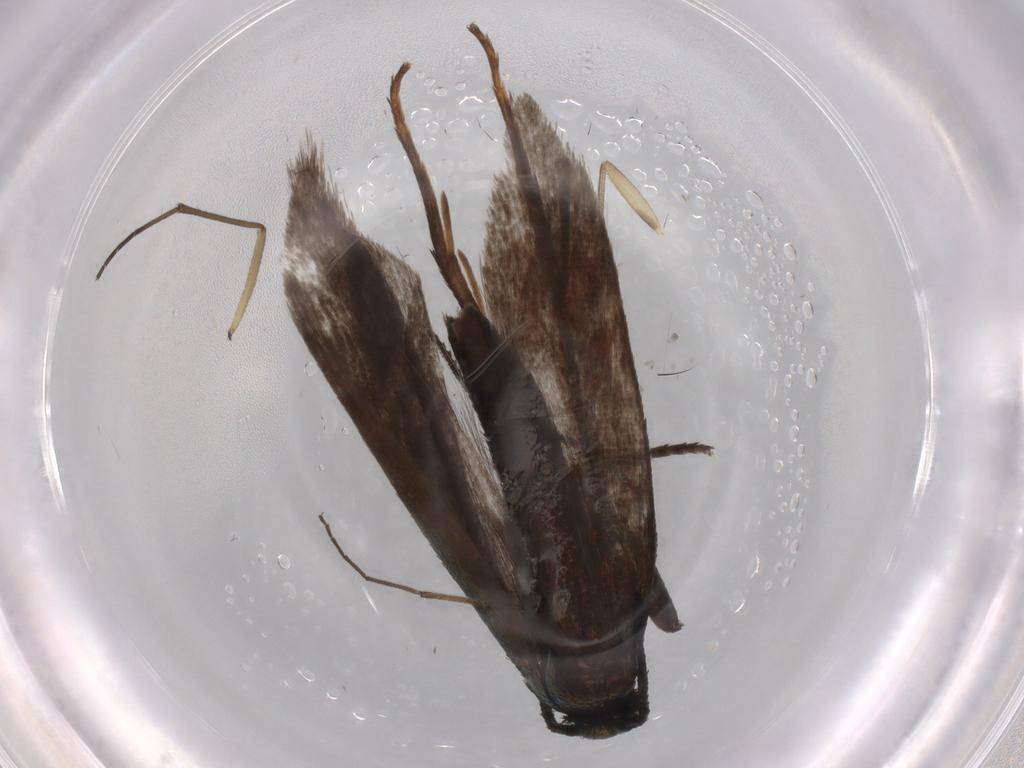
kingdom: Animalia
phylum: Arthropoda
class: Insecta
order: Lepidoptera
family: Argyresthiidae
